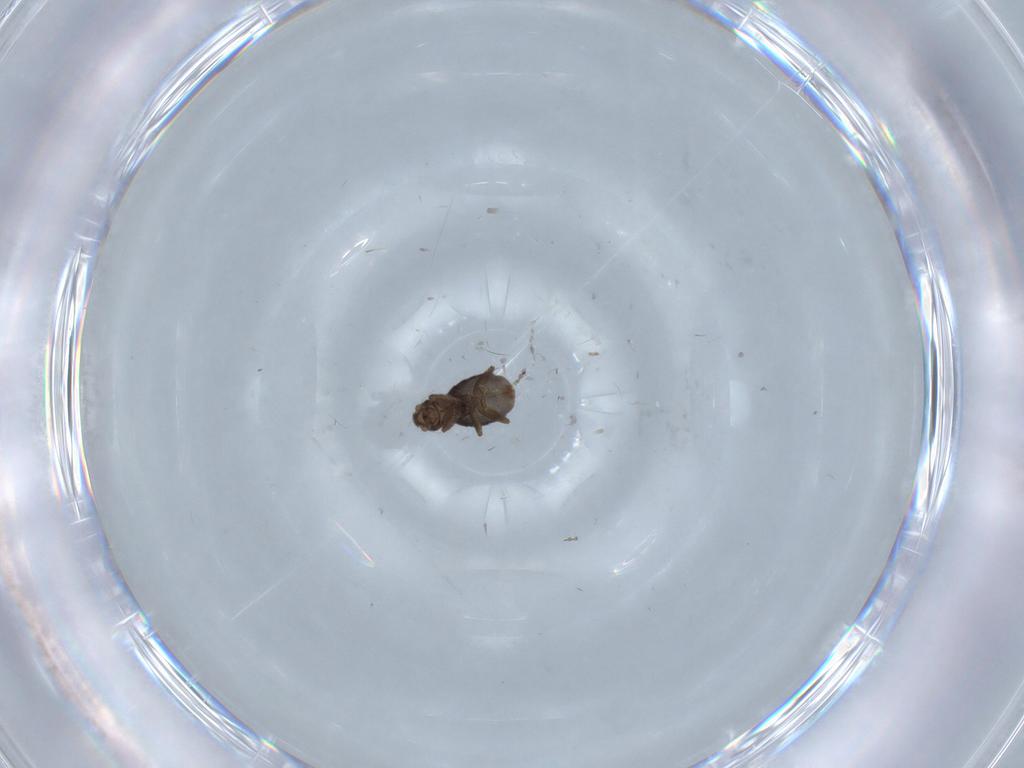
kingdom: Animalia
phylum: Arthropoda
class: Insecta
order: Diptera
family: Phoridae
